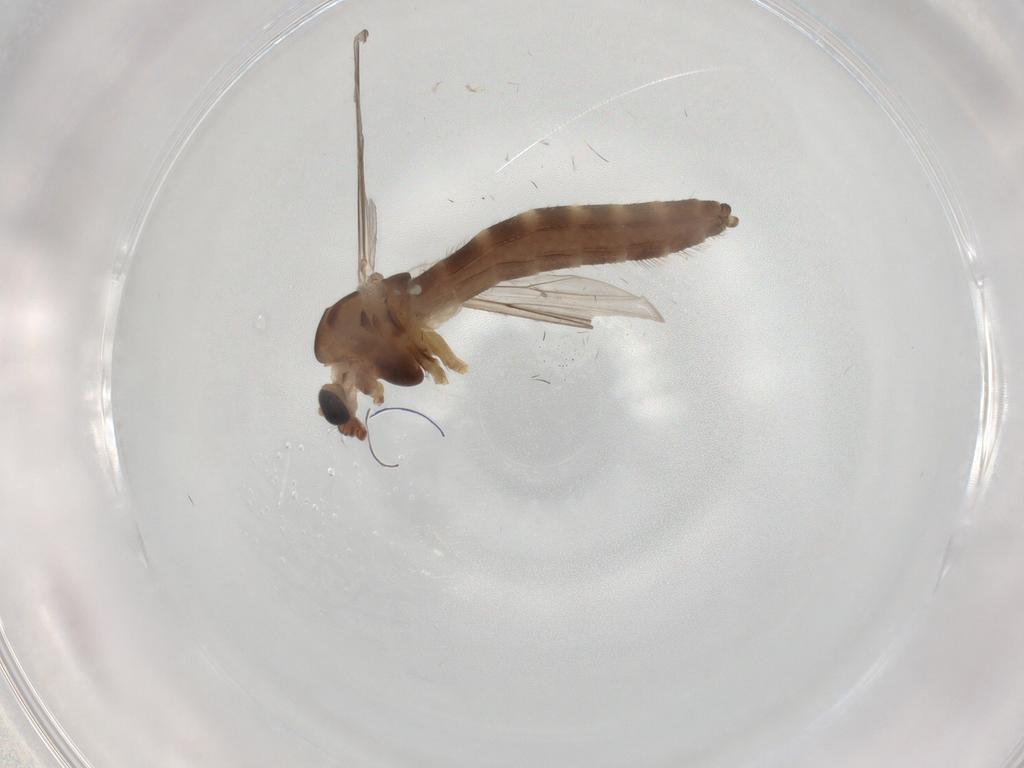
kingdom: Animalia
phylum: Arthropoda
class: Insecta
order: Diptera
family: Chironomidae
